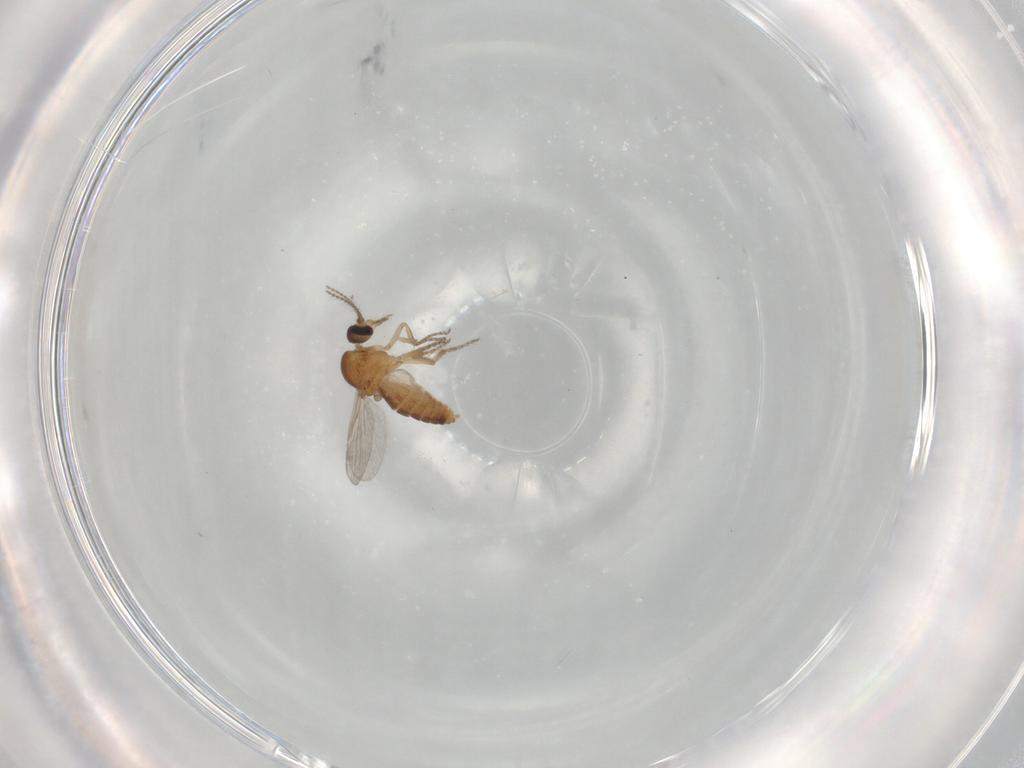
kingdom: Animalia
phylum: Arthropoda
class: Insecta
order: Diptera
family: Ceratopogonidae
